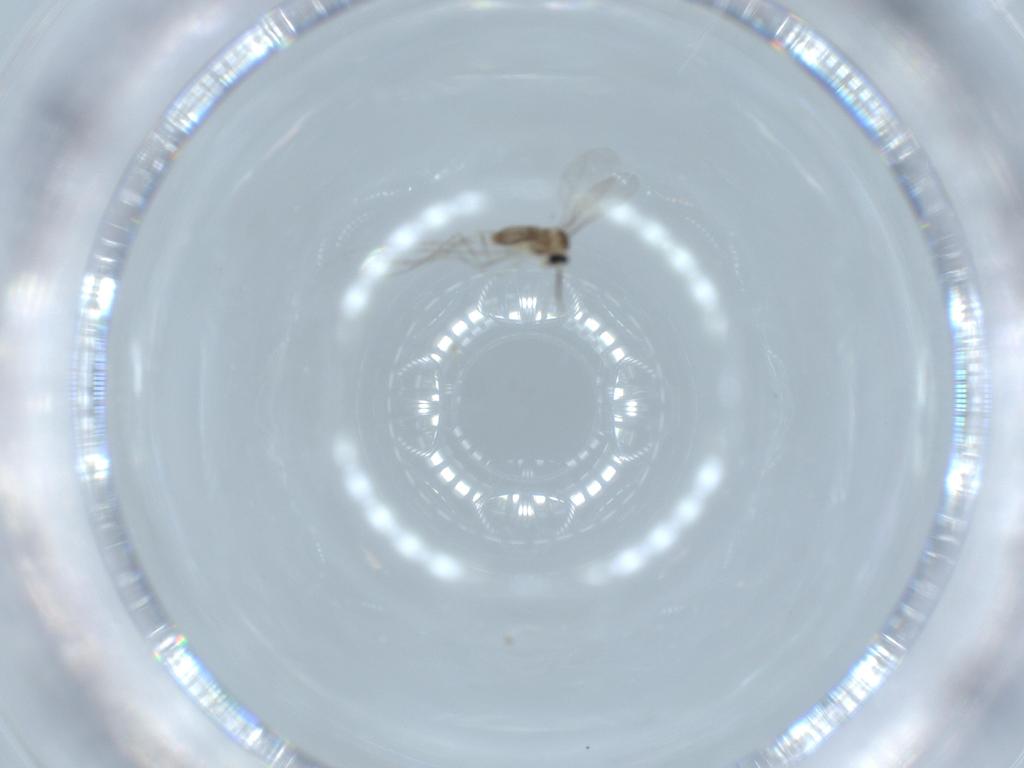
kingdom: Animalia
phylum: Arthropoda
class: Insecta
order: Diptera
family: Cecidomyiidae
